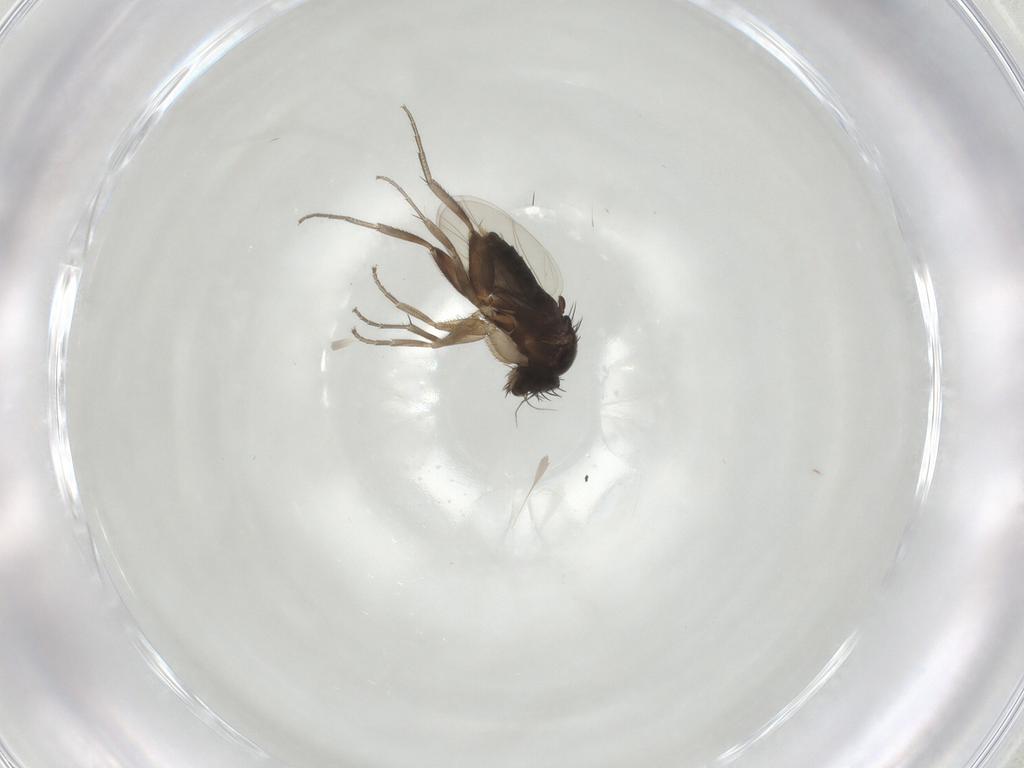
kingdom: Animalia
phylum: Arthropoda
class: Insecta
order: Diptera
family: Phoridae
